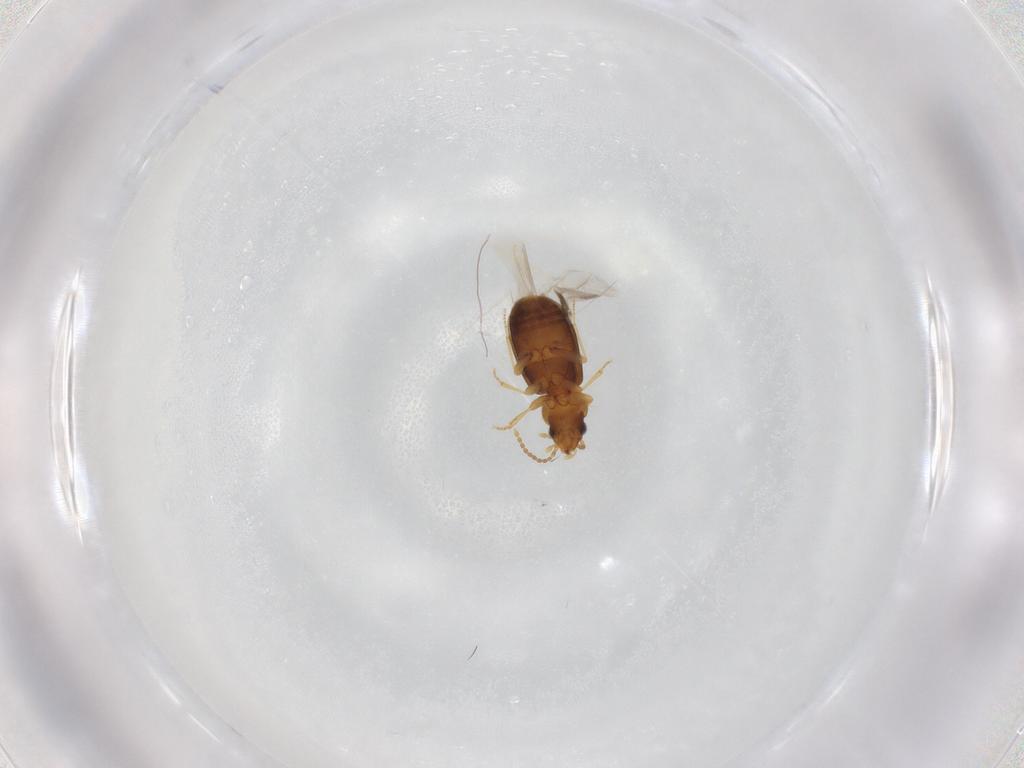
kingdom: Animalia
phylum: Arthropoda
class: Insecta
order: Coleoptera
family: Carabidae
